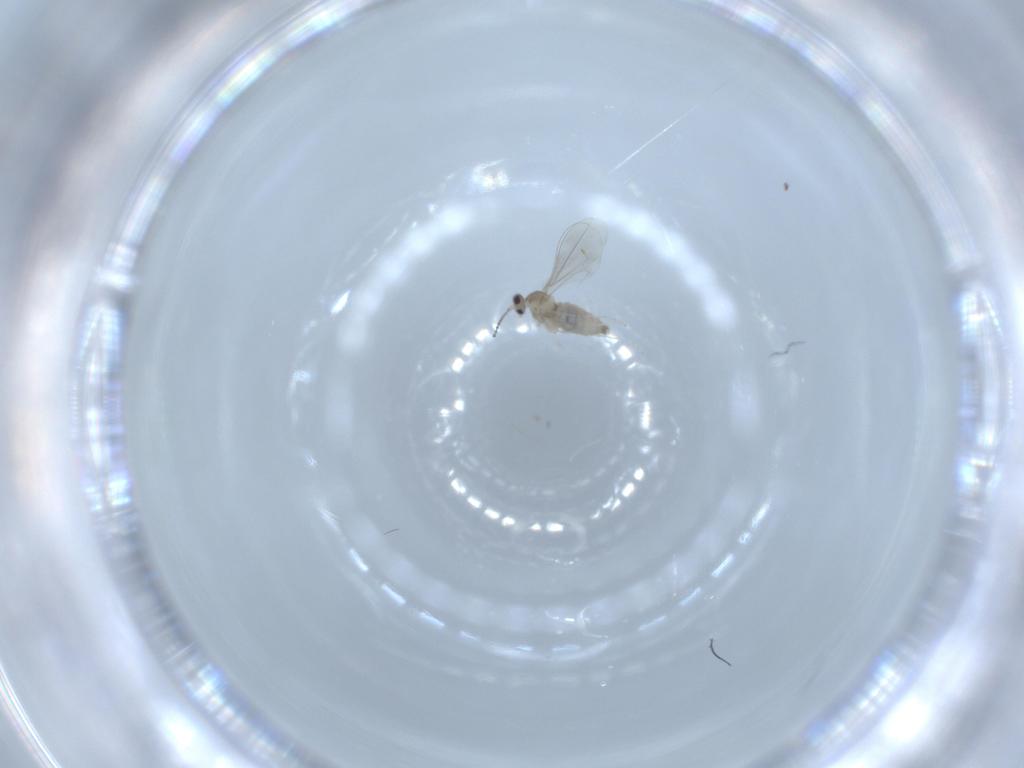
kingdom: Animalia
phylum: Arthropoda
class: Insecta
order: Diptera
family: Cecidomyiidae
